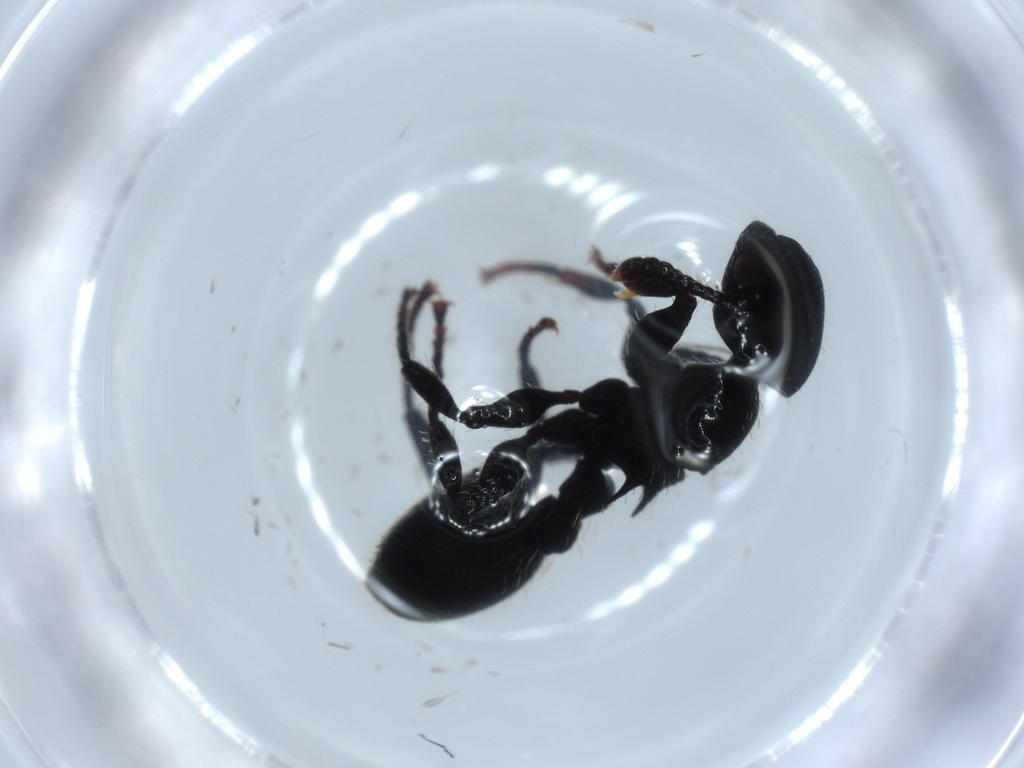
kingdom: Animalia
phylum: Arthropoda
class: Insecta
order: Hymenoptera
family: Formicidae
